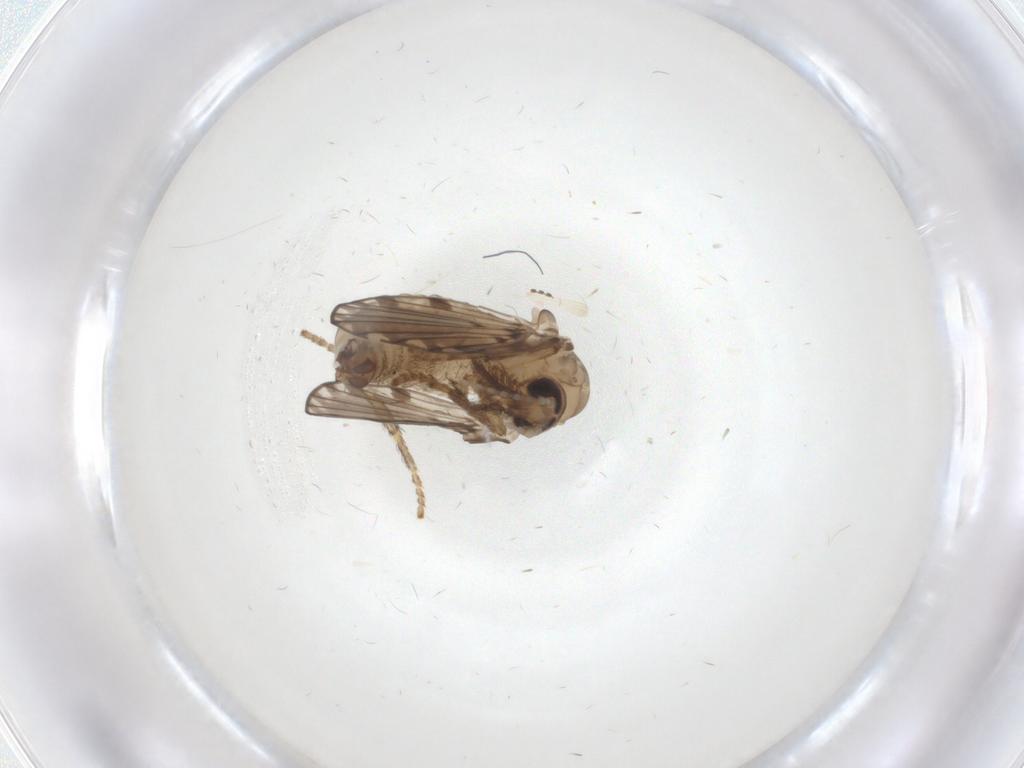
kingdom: Animalia
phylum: Arthropoda
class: Insecta
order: Diptera
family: Psychodidae
